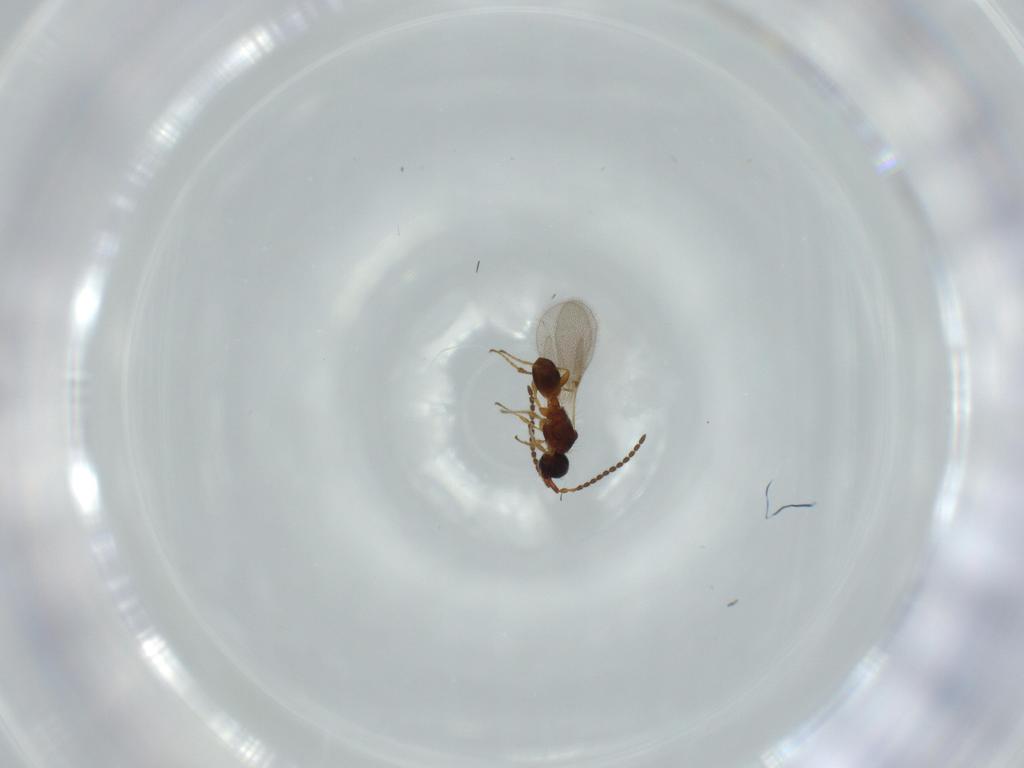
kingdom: Animalia
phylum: Arthropoda
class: Insecta
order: Hymenoptera
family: Diapriidae
